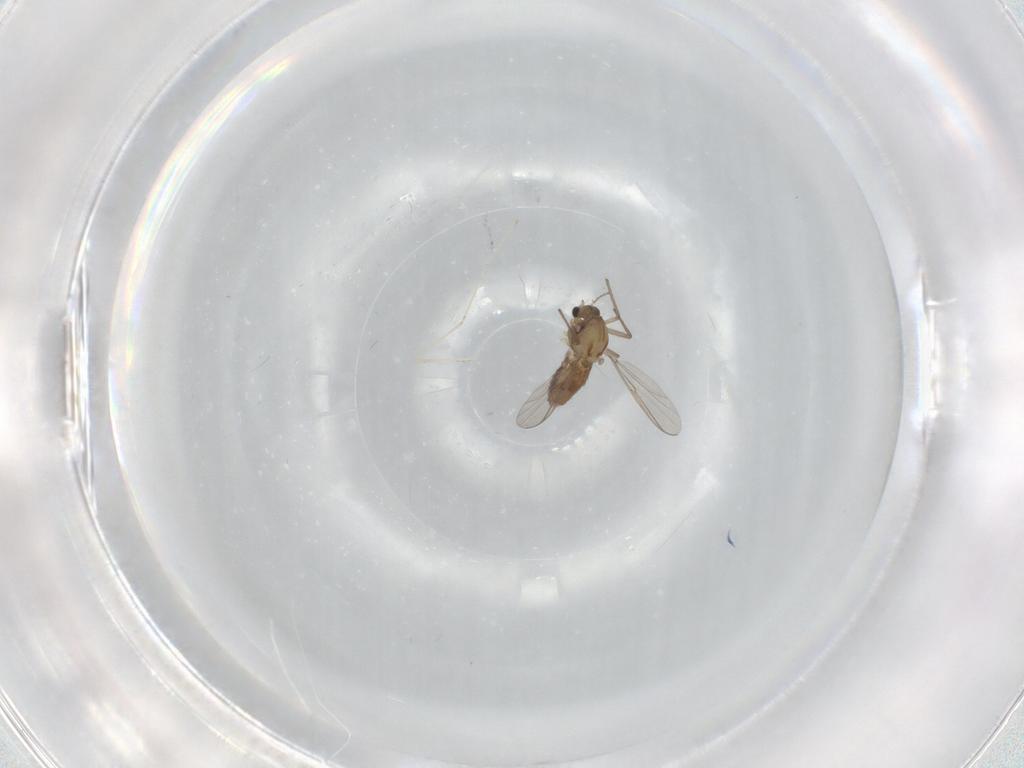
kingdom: Animalia
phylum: Arthropoda
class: Insecta
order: Diptera
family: Chironomidae
